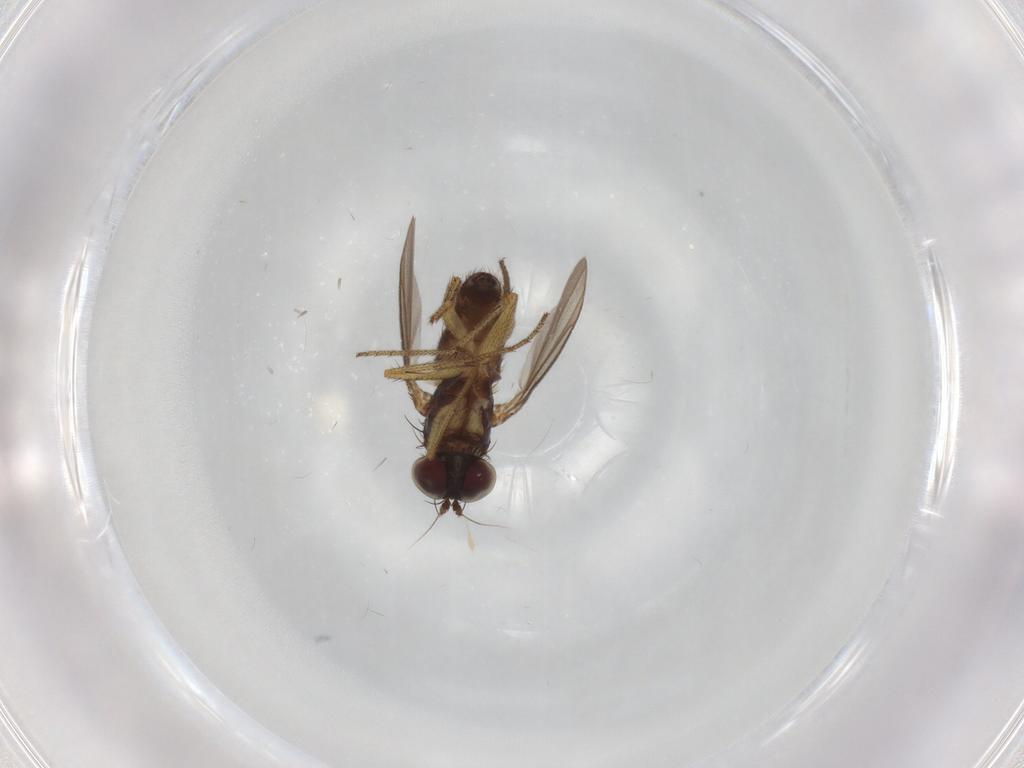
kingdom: Animalia
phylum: Arthropoda
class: Insecta
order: Diptera
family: Dolichopodidae
